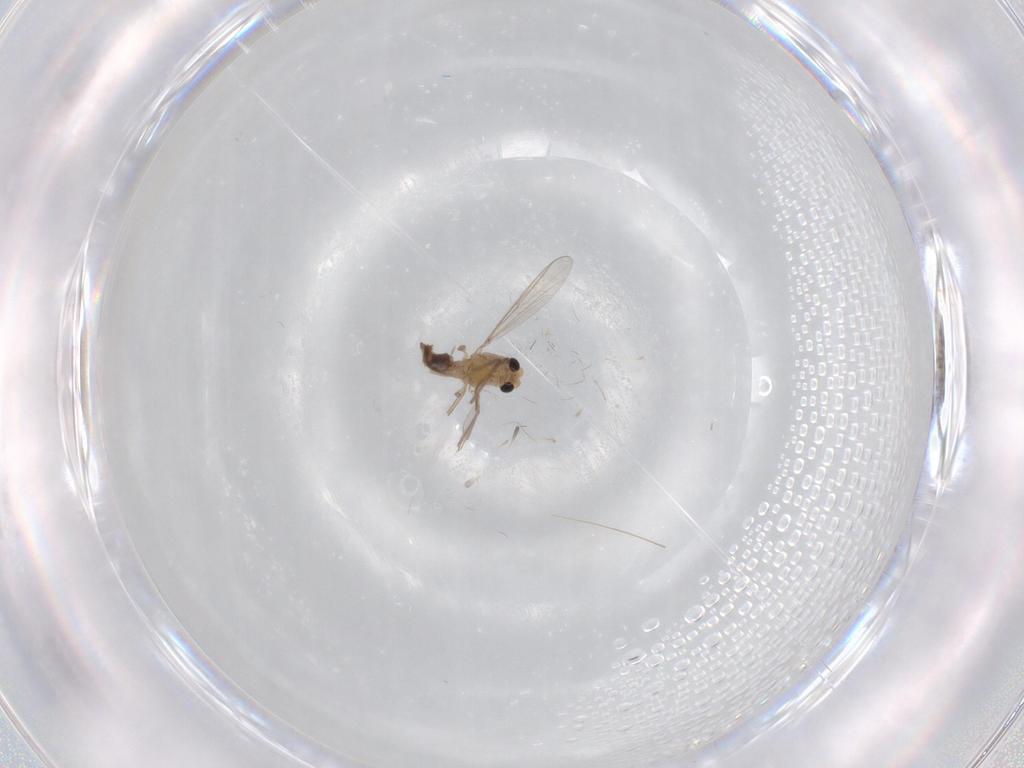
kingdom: Animalia
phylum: Arthropoda
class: Insecta
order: Diptera
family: Chironomidae
